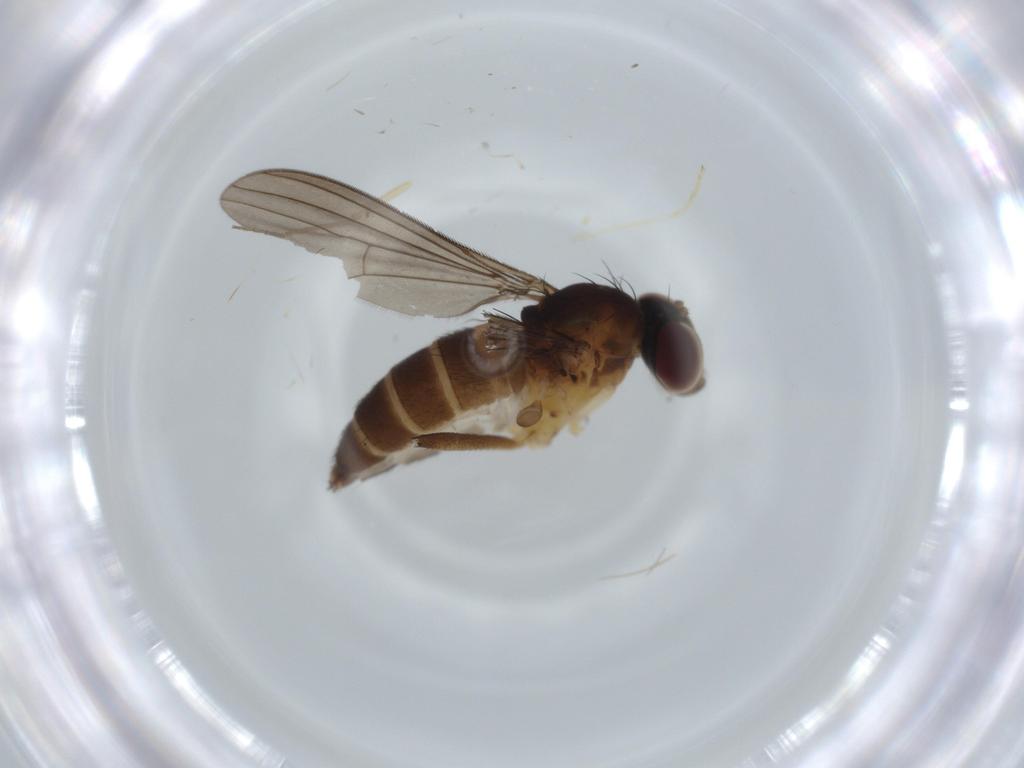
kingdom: Animalia
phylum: Arthropoda
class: Insecta
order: Diptera
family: Dolichopodidae
